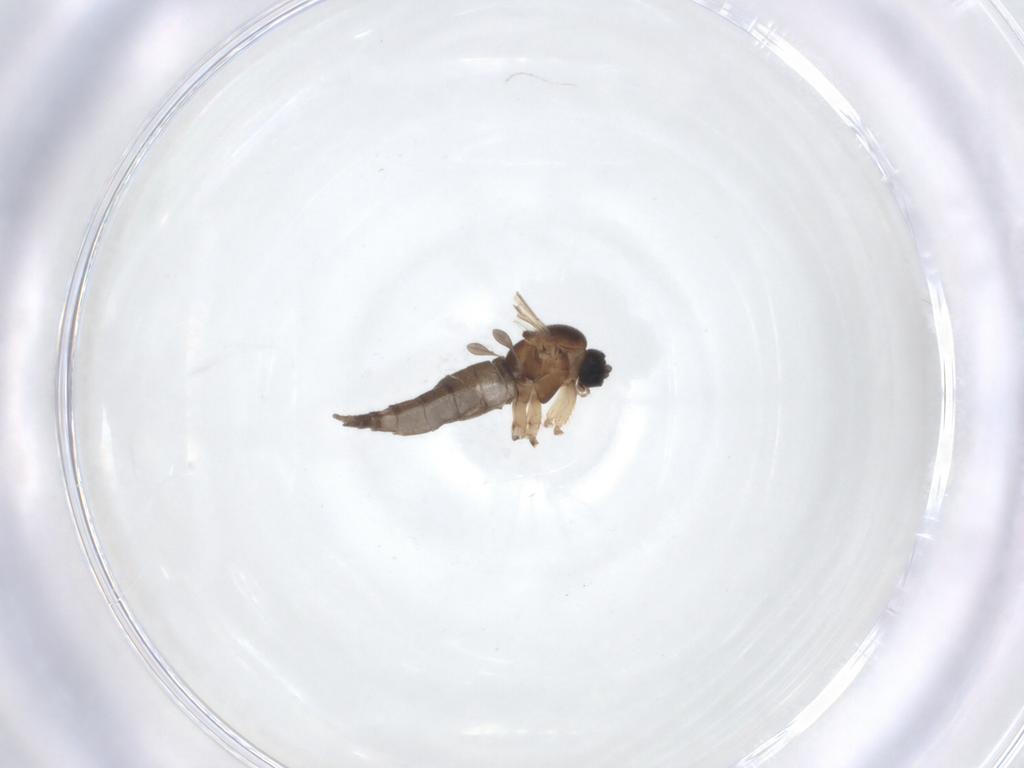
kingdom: Animalia
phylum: Arthropoda
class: Insecta
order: Diptera
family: Sciaridae
